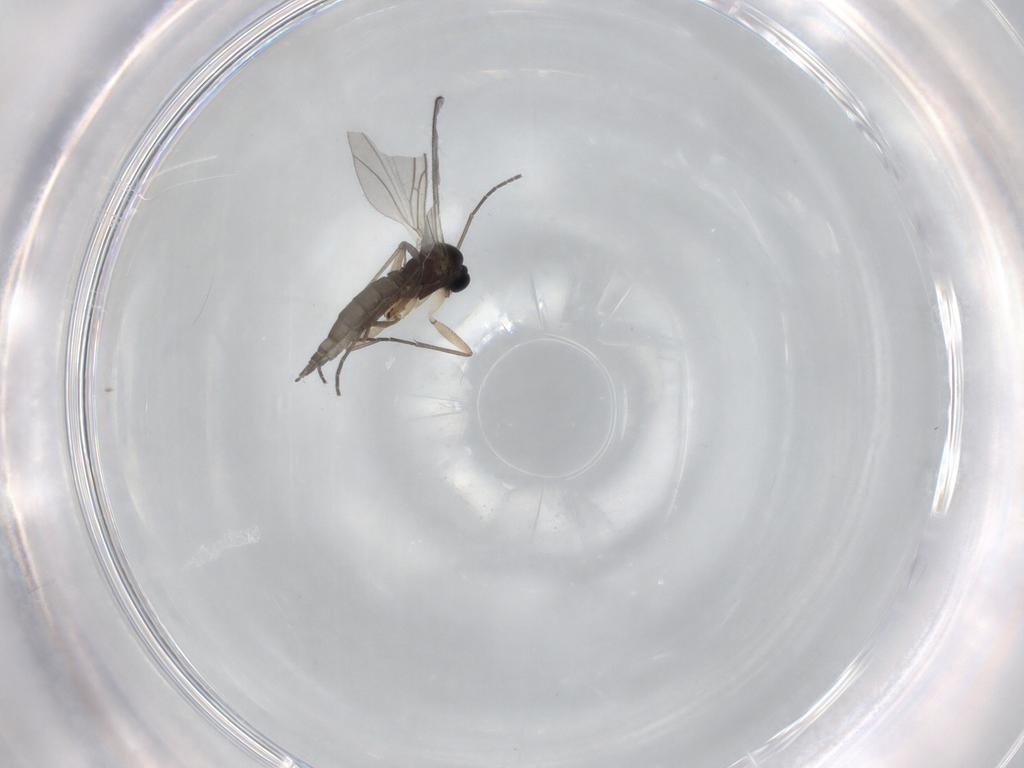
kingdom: Animalia
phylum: Arthropoda
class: Insecta
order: Diptera
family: Sciaridae
